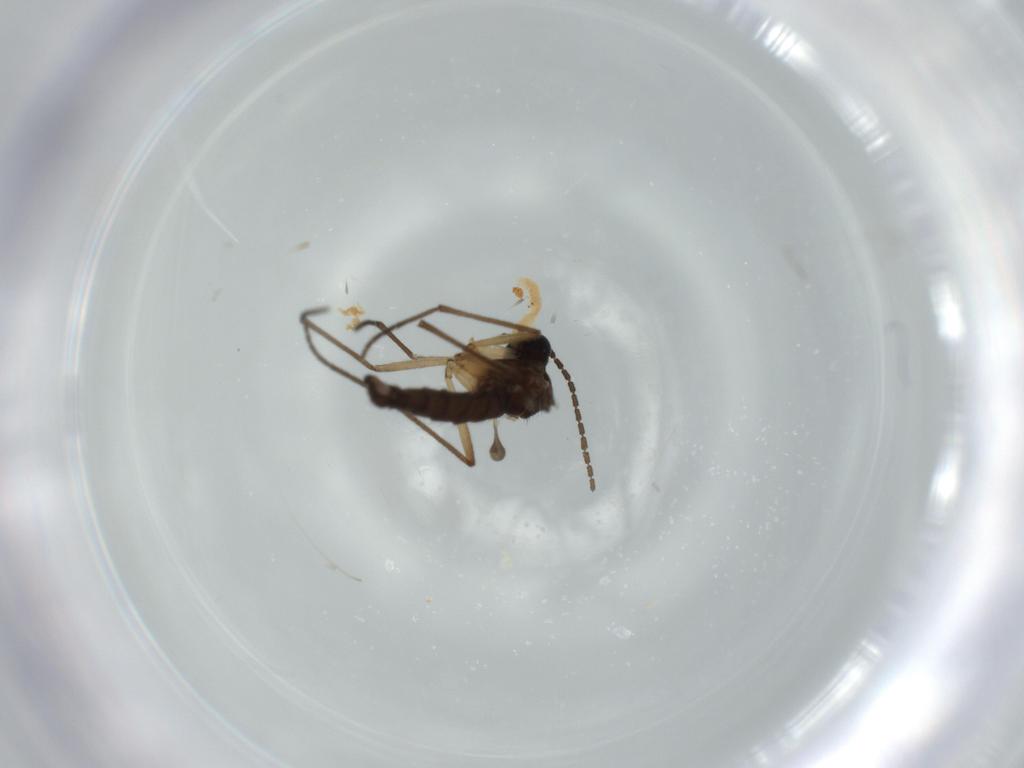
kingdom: Animalia
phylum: Arthropoda
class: Insecta
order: Diptera
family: Sciaridae
